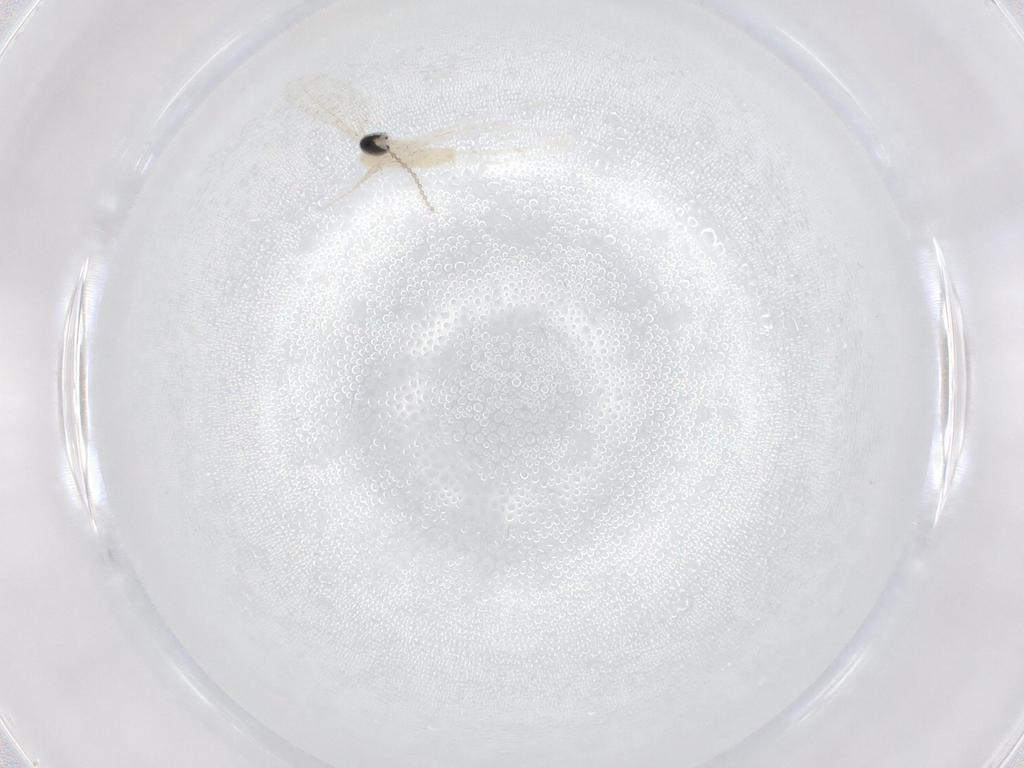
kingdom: Animalia
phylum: Arthropoda
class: Insecta
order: Diptera
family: Cecidomyiidae
